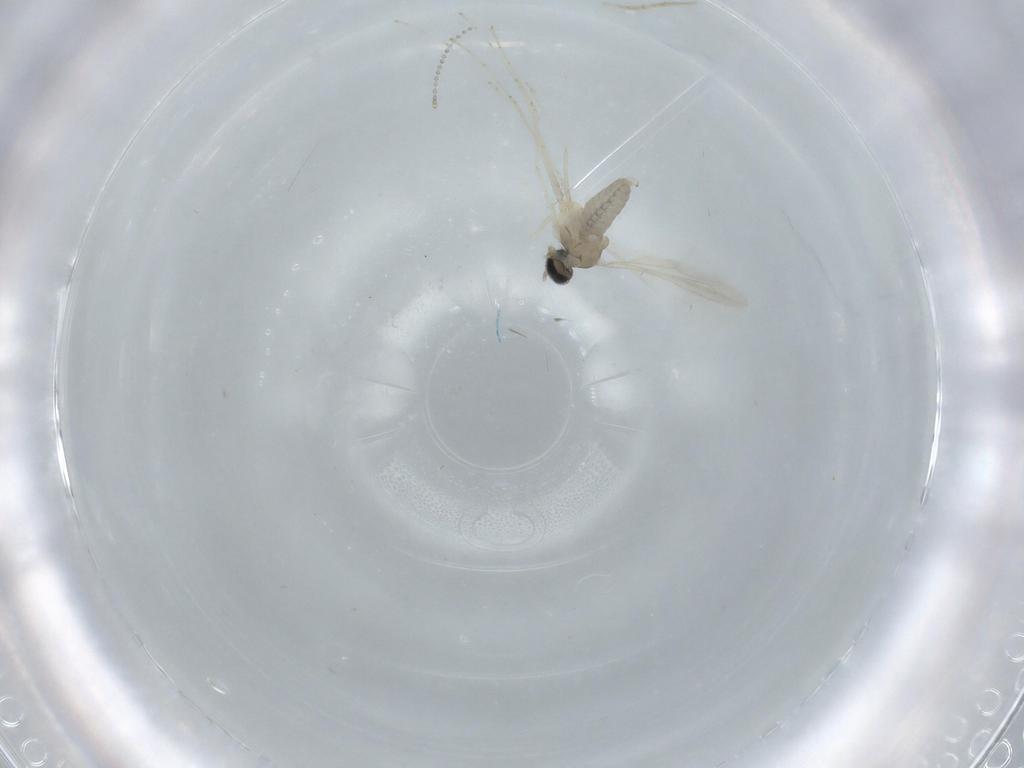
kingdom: Animalia
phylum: Arthropoda
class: Insecta
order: Diptera
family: Cecidomyiidae
